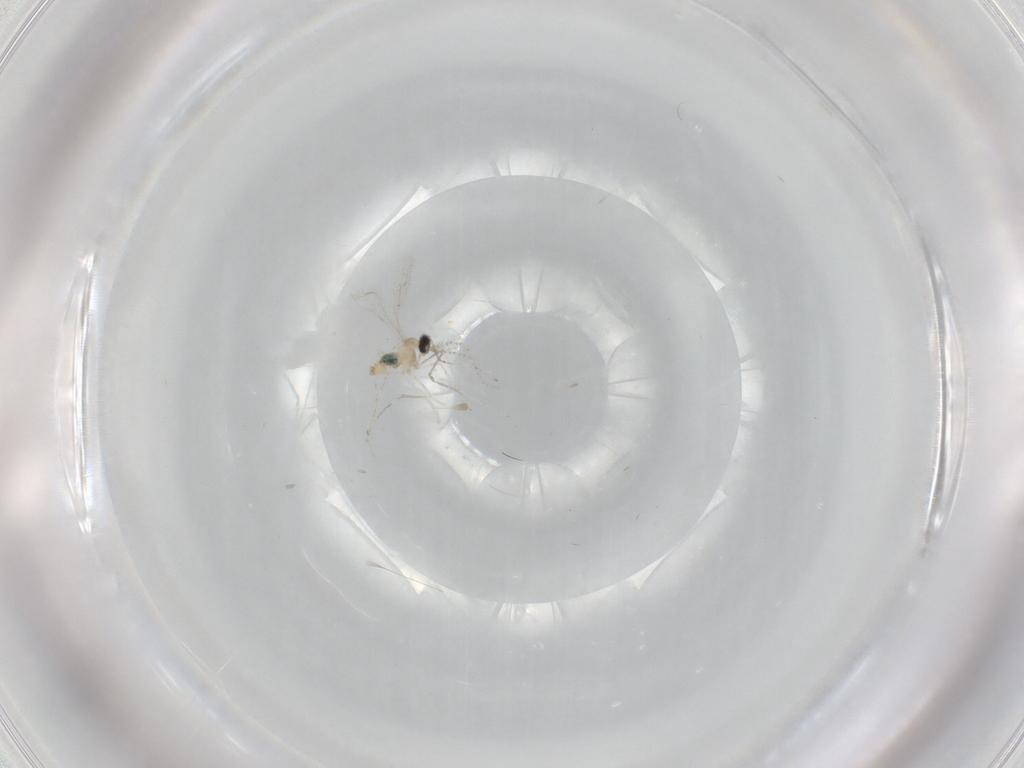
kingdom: Animalia
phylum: Arthropoda
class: Insecta
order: Diptera
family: Cecidomyiidae
